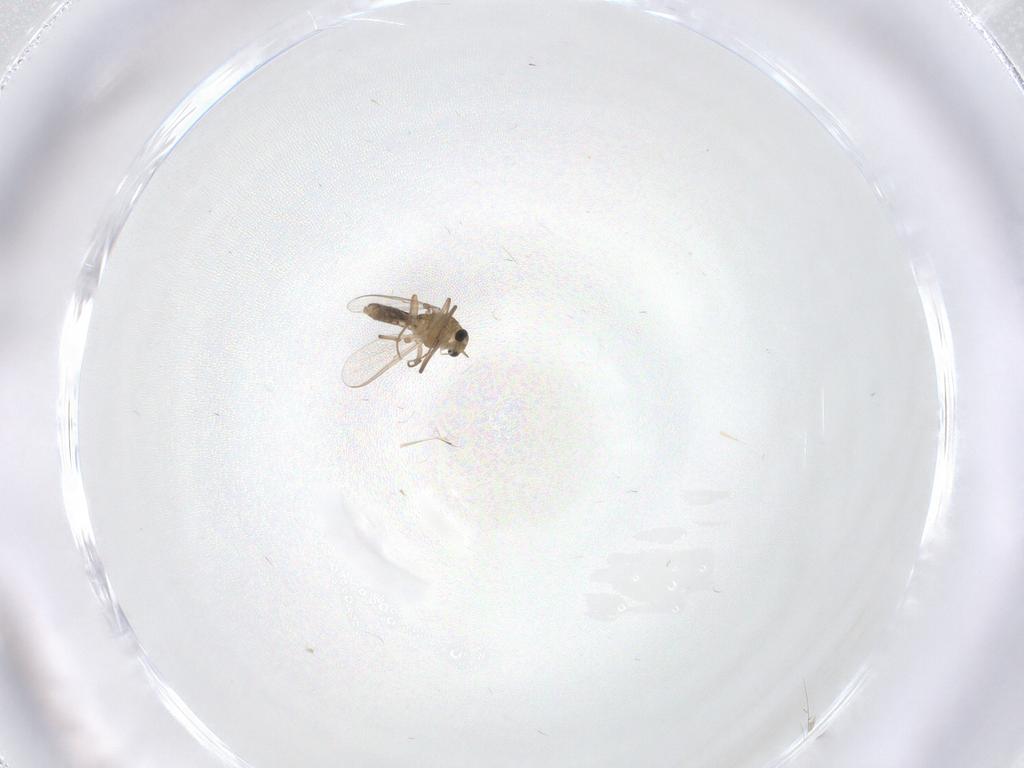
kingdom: Animalia
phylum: Arthropoda
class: Insecta
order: Diptera
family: Chironomidae
